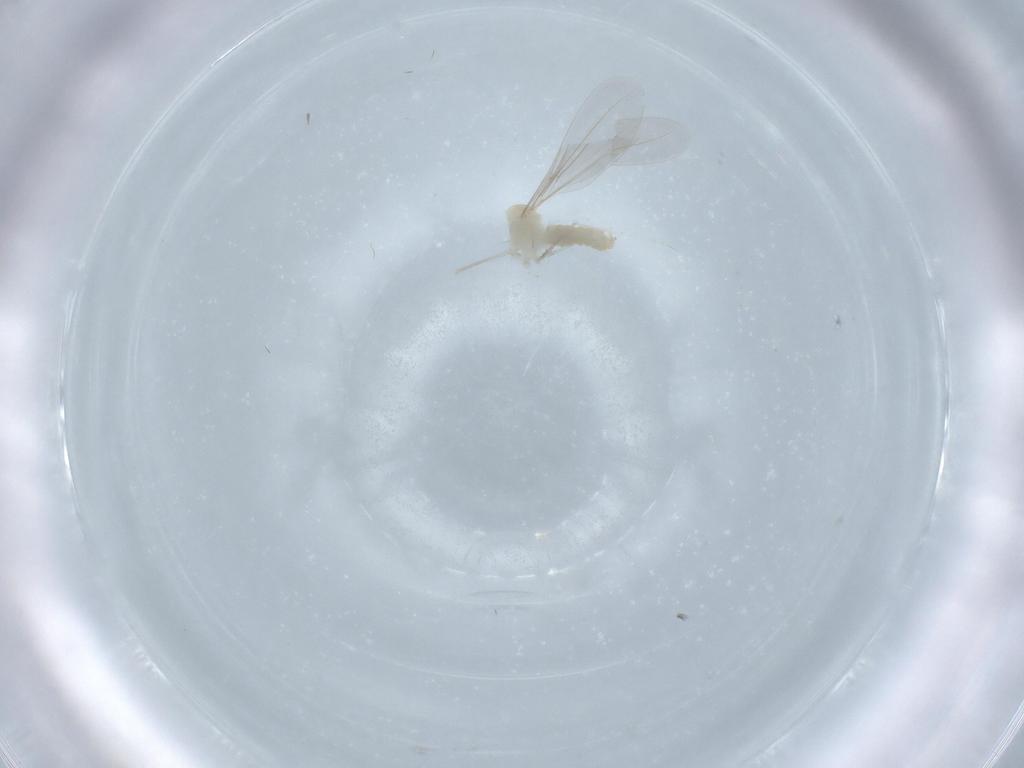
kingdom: Animalia
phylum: Arthropoda
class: Insecta
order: Diptera
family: Cecidomyiidae
